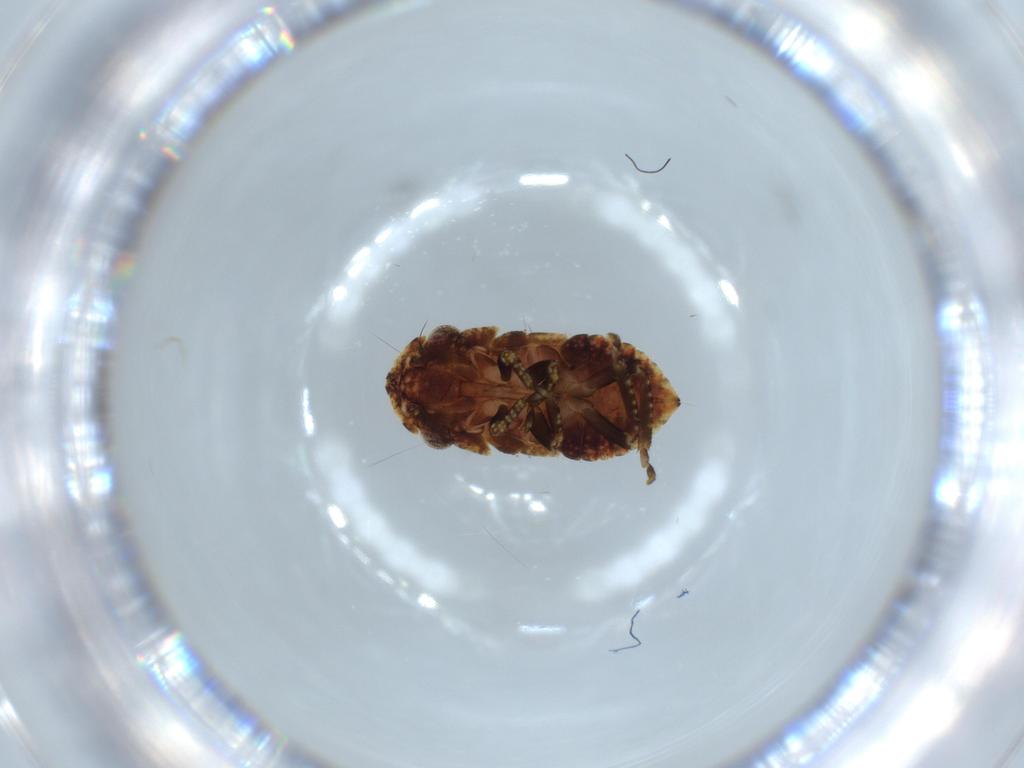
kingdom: Animalia
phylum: Arthropoda
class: Insecta
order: Hemiptera
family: Cicadellidae
